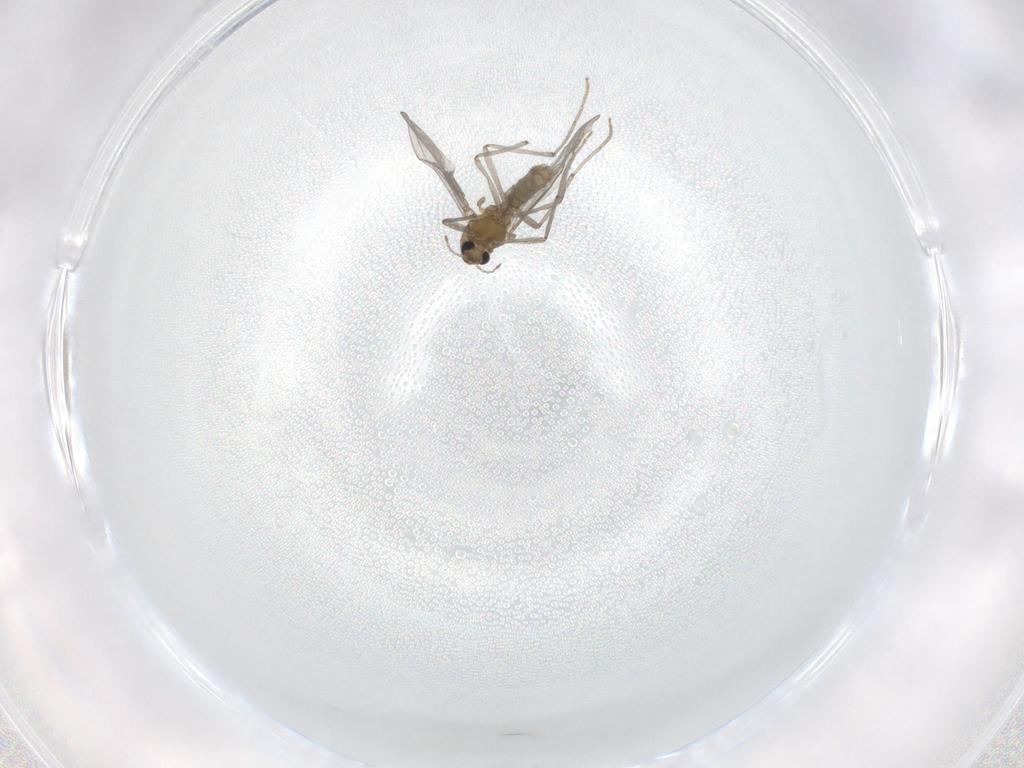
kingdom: Animalia
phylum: Arthropoda
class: Insecta
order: Diptera
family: Chironomidae
